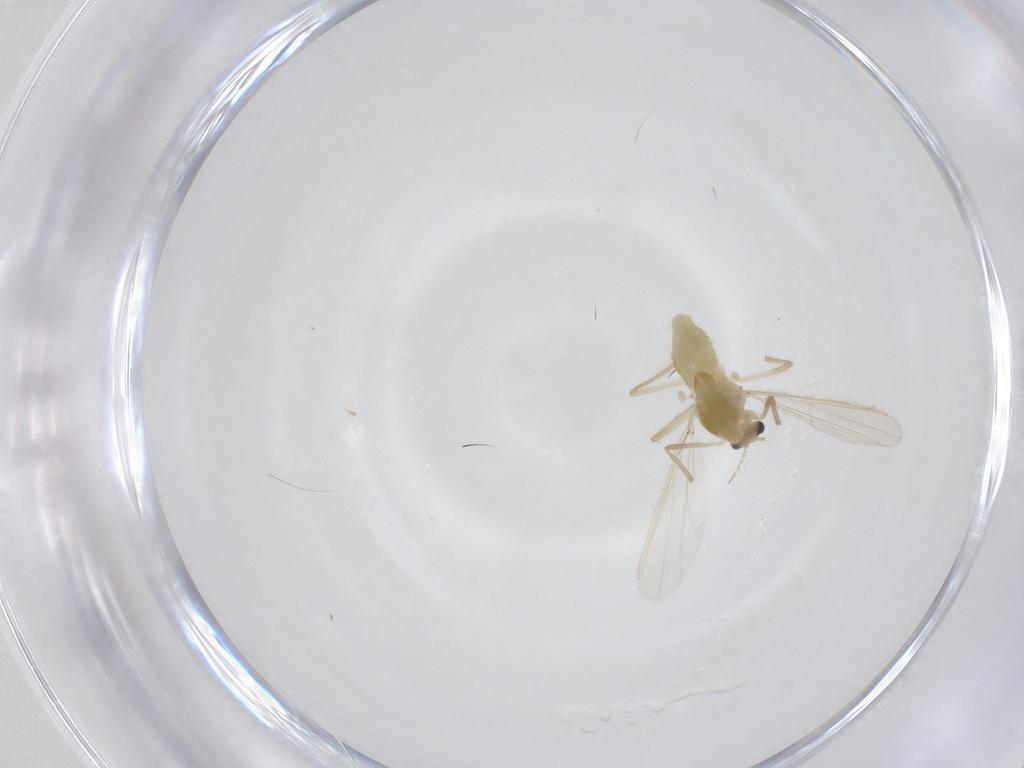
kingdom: Animalia
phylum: Arthropoda
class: Insecta
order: Diptera
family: Chironomidae
